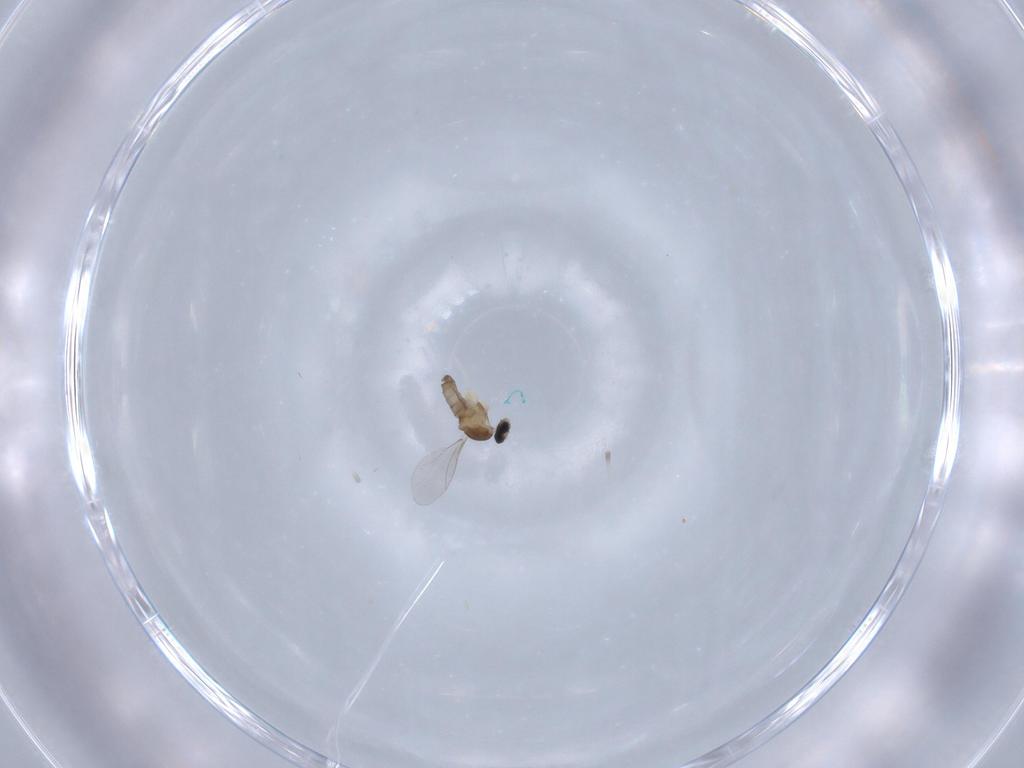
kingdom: Animalia
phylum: Arthropoda
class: Insecta
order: Diptera
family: Cecidomyiidae
